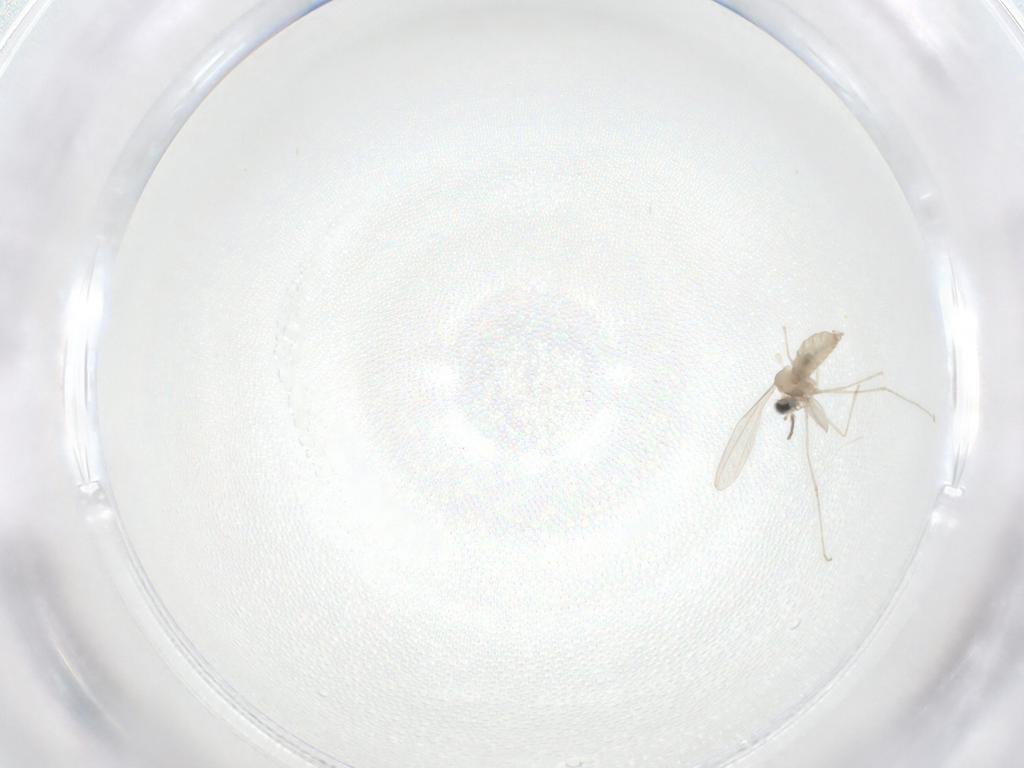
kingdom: Animalia
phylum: Arthropoda
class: Insecta
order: Diptera
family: Cecidomyiidae
